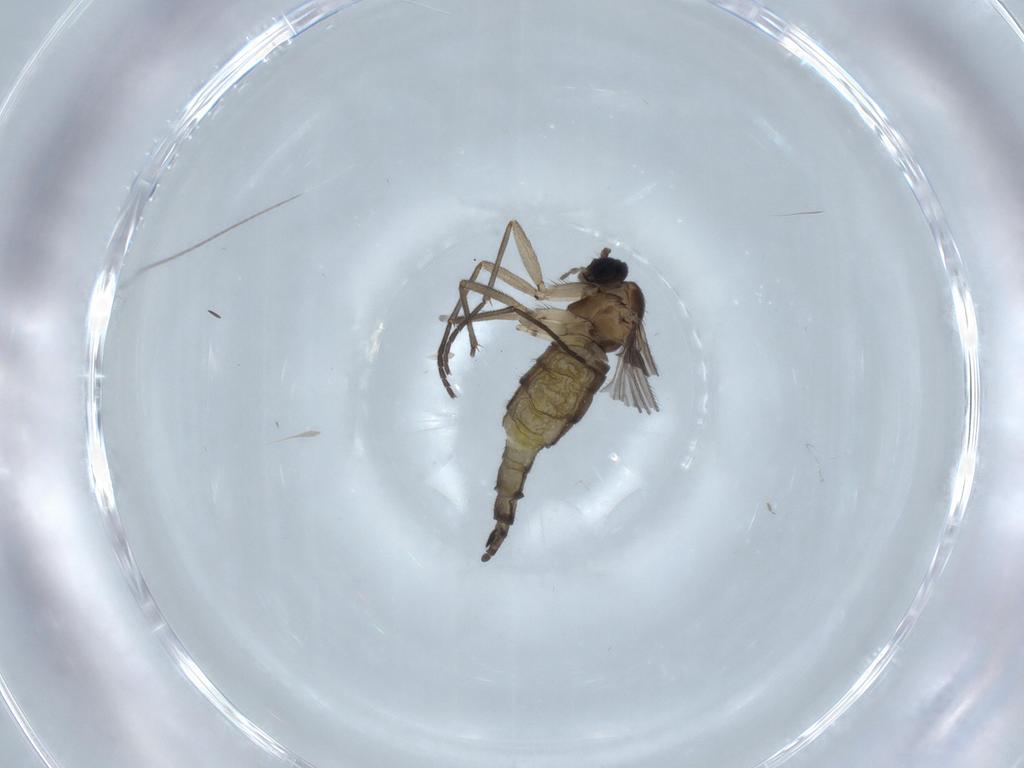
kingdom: Animalia
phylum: Arthropoda
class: Insecta
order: Diptera
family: Sciaridae
